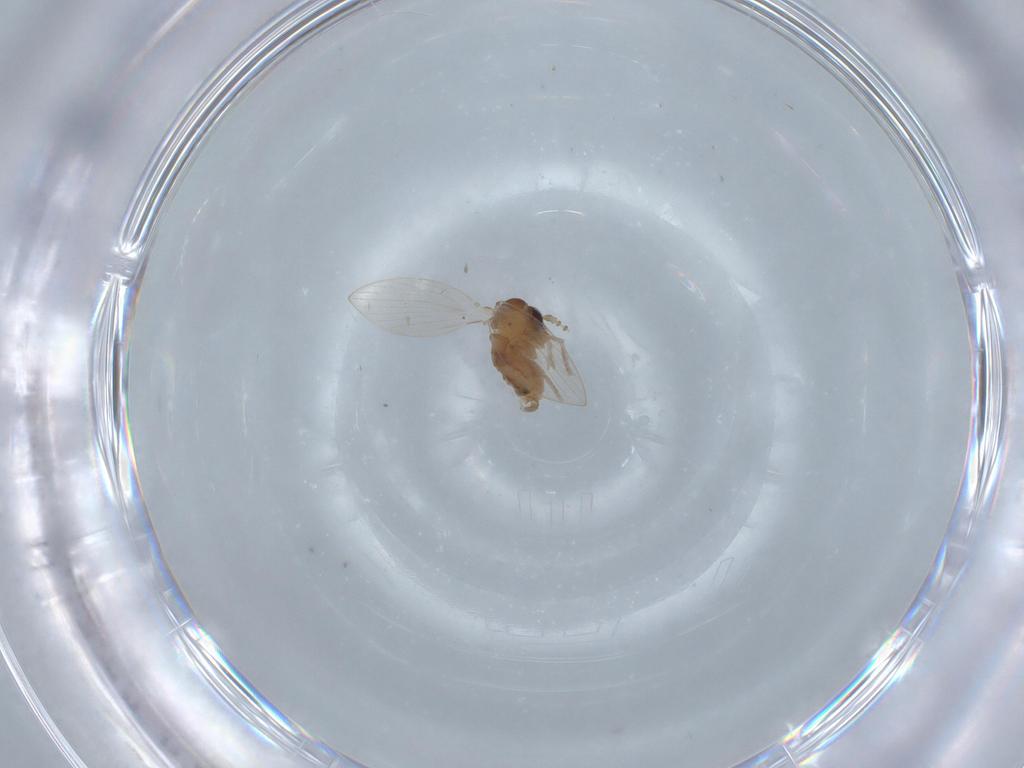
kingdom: Animalia
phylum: Arthropoda
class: Insecta
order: Diptera
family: Psychodidae
